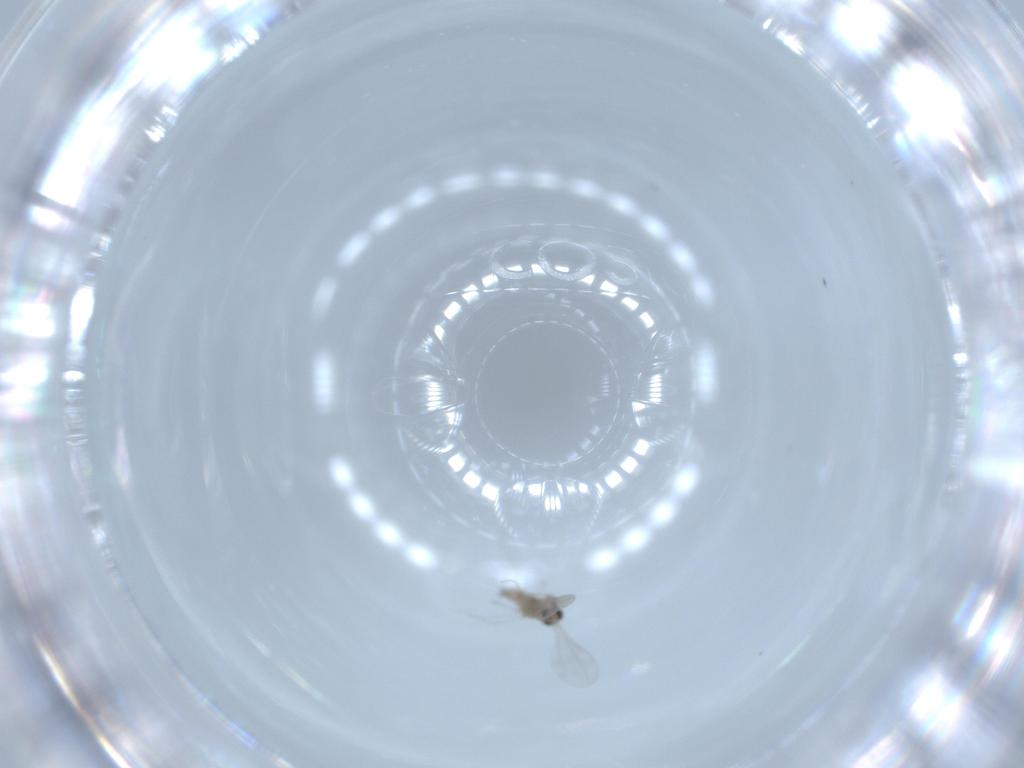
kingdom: Animalia
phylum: Arthropoda
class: Insecta
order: Diptera
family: Cecidomyiidae
